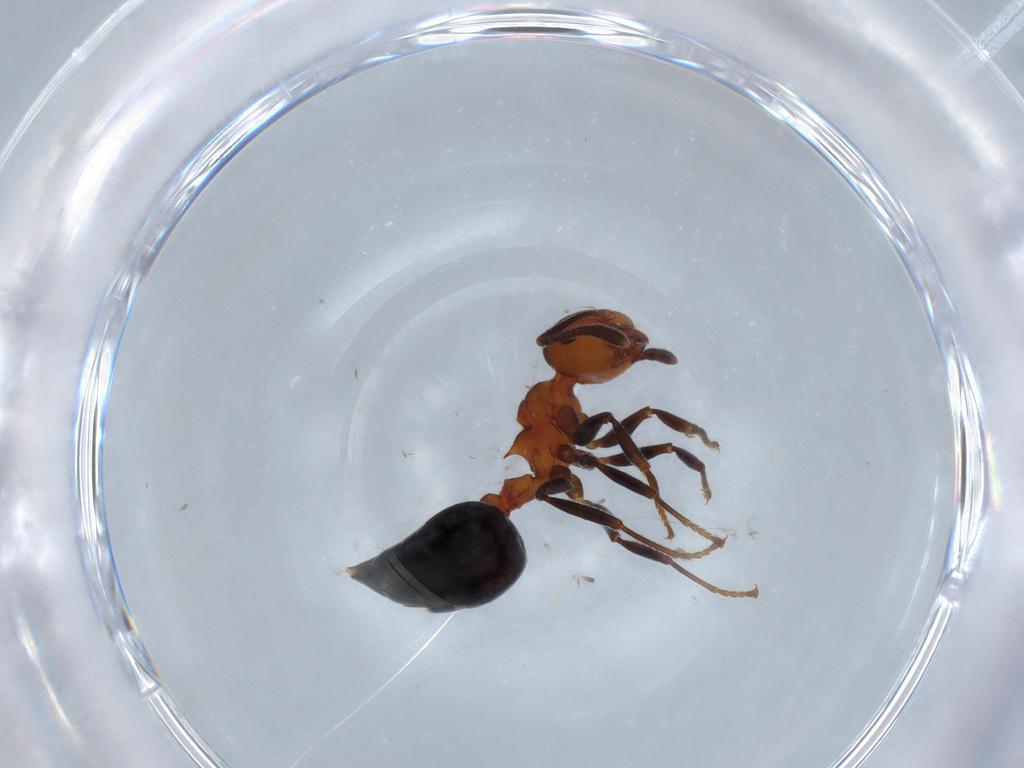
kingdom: Animalia
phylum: Arthropoda
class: Insecta
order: Hymenoptera
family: Formicidae
